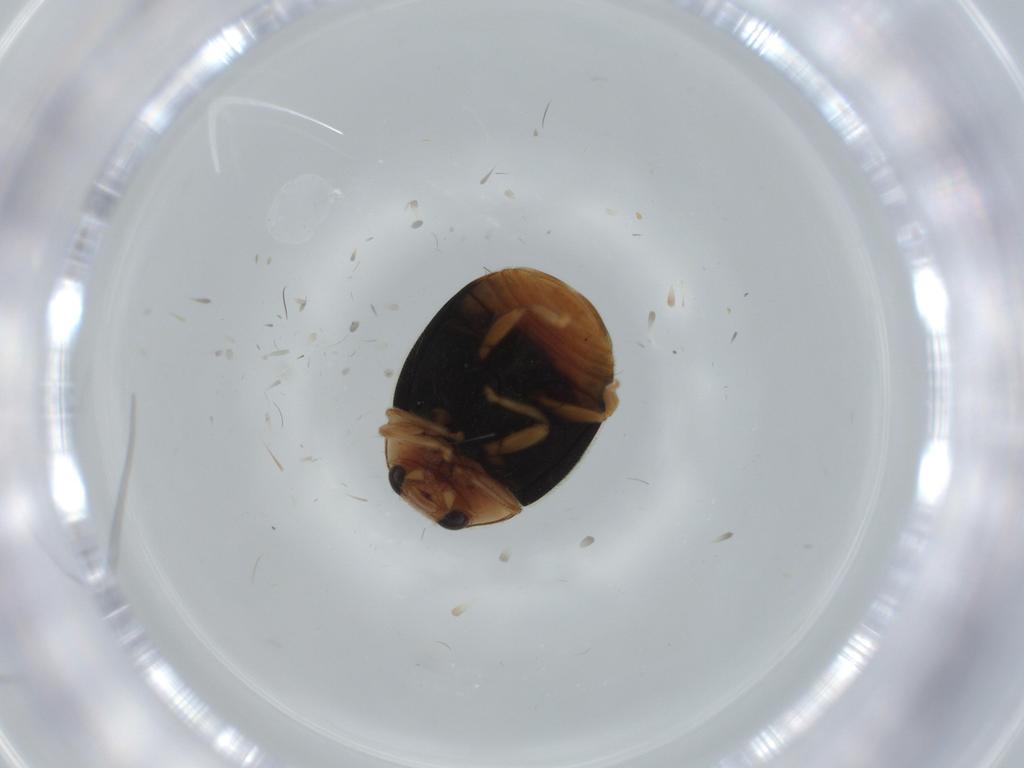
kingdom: Animalia
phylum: Arthropoda
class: Insecta
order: Coleoptera
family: Coccinellidae
